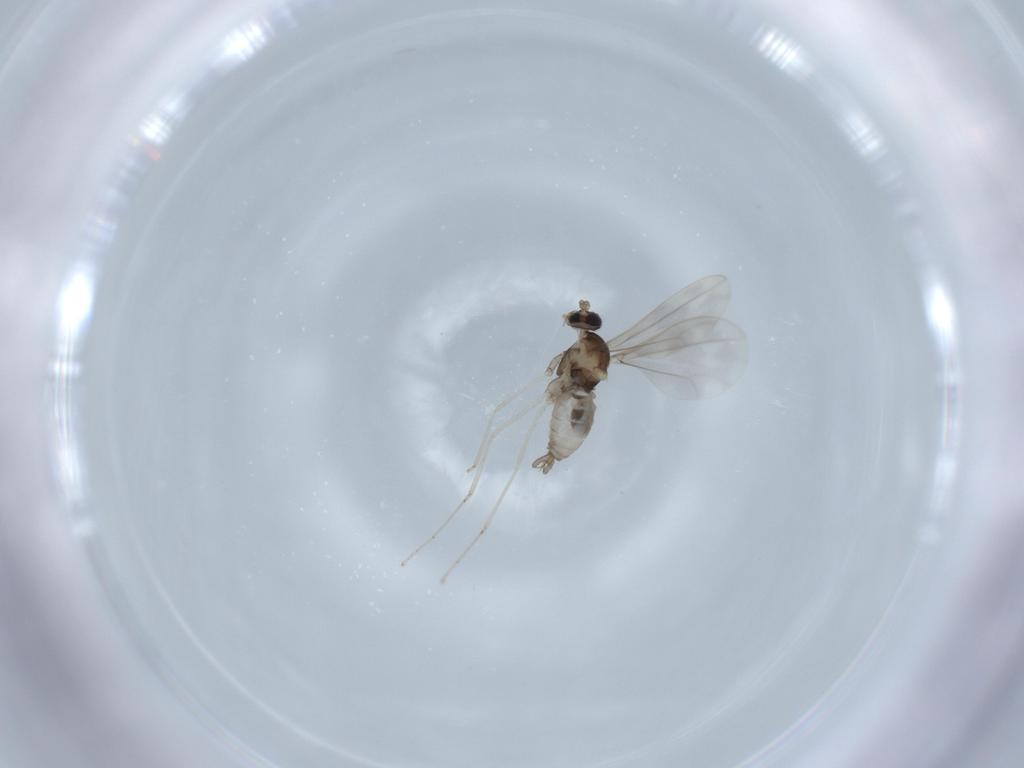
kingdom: Animalia
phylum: Arthropoda
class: Insecta
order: Diptera
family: Cecidomyiidae
